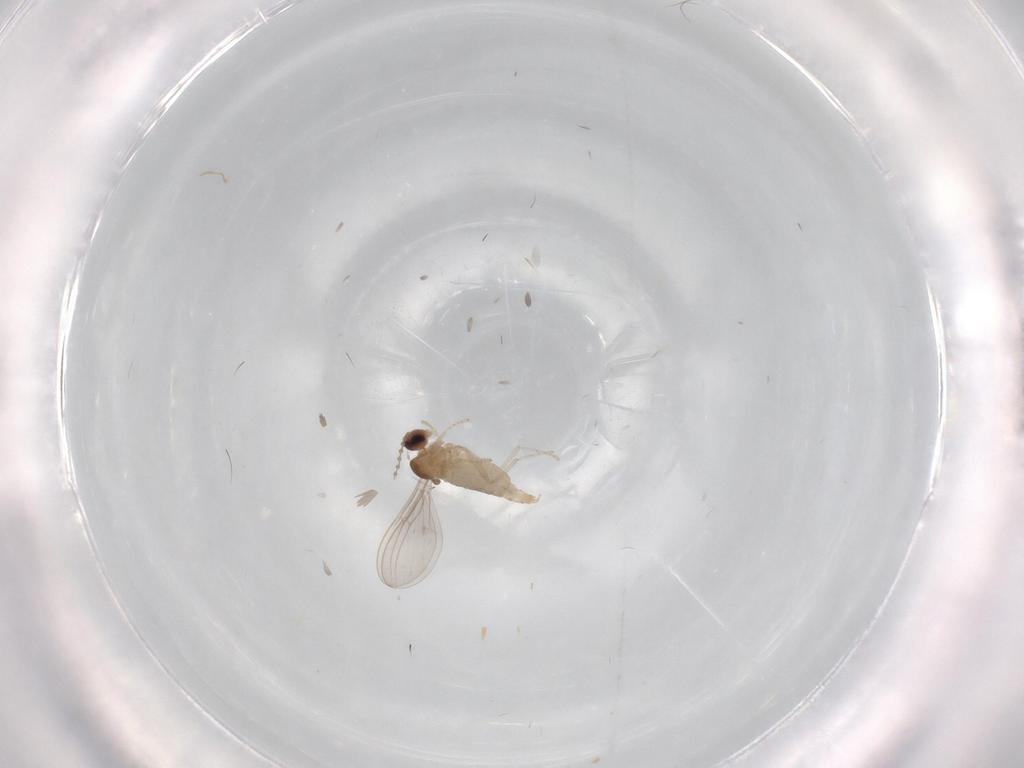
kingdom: Animalia
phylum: Arthropoda
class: Insecta
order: Diptera
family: Cecidomyiidae
